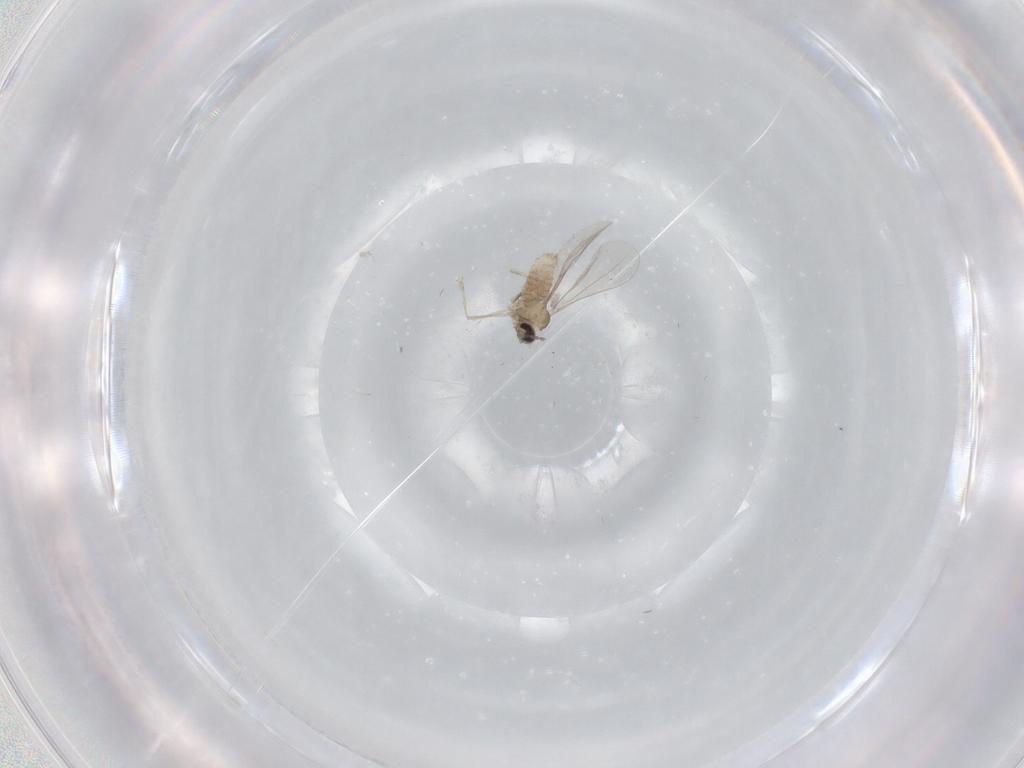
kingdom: Animalia
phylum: Arthropoda
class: Insecta
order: Diptera
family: Cecidomyiidae
